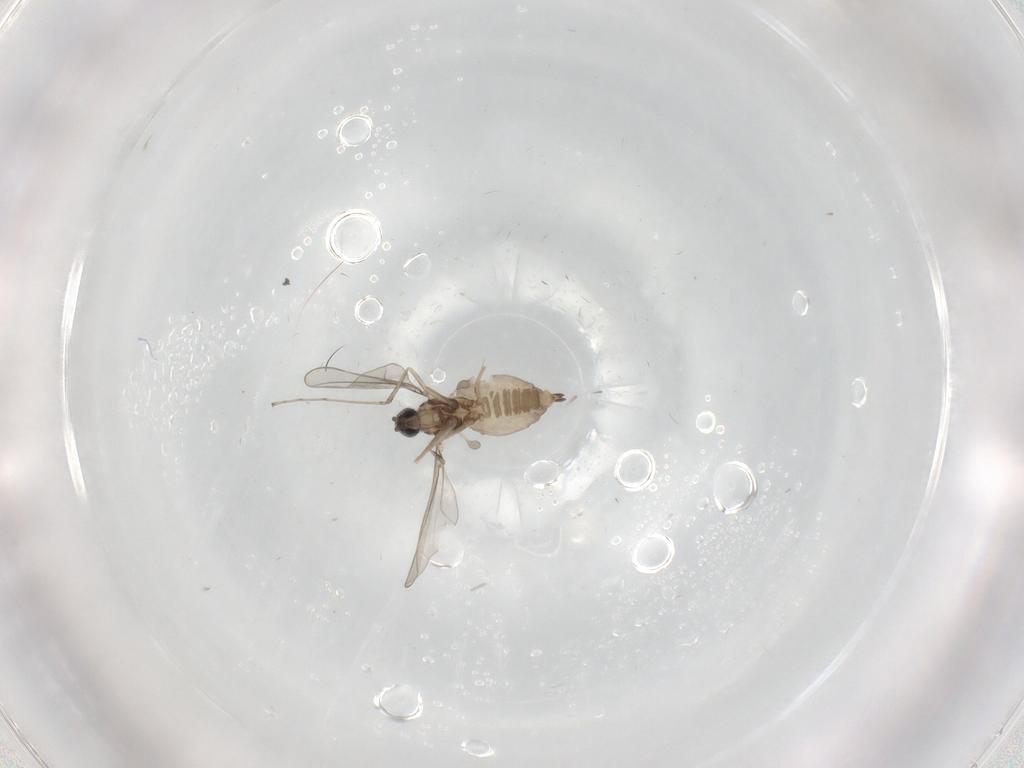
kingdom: Animalia
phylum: Arthropoda
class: Insecta
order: Diptera
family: Cecidomyiidae
